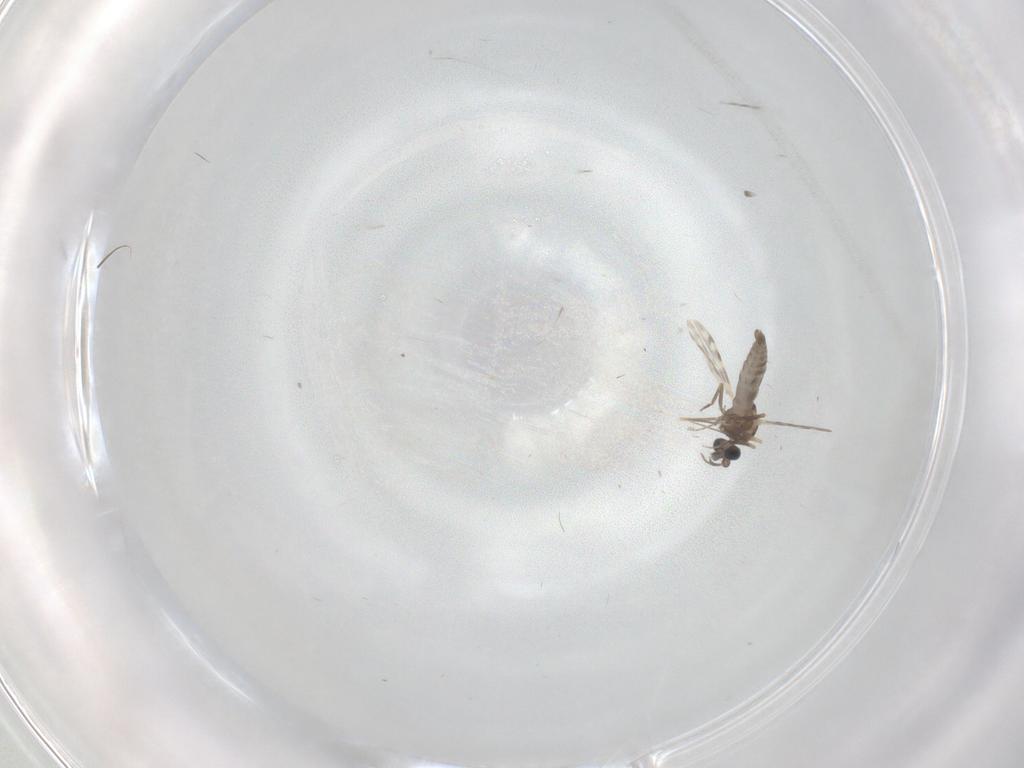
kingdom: Animalia
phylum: Arthropoda
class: Insecta
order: Diptera
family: Ceratopogonidae
